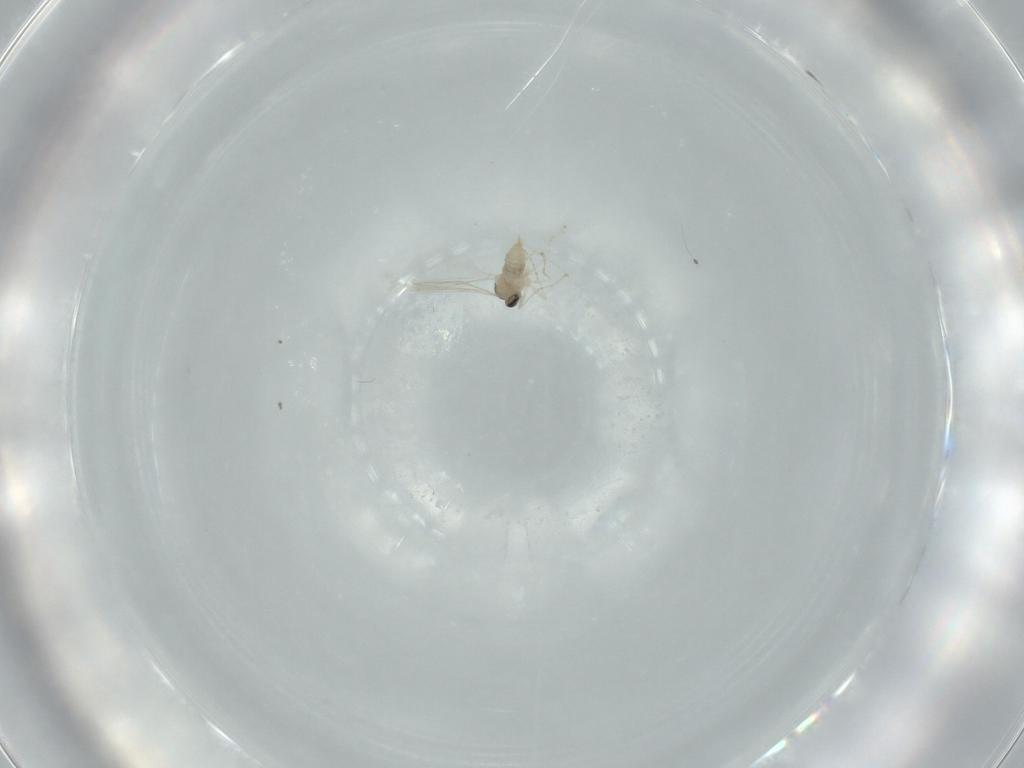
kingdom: Animalia
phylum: Arthropoda
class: Insecta
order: Diptera
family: Cecidomyiidae
